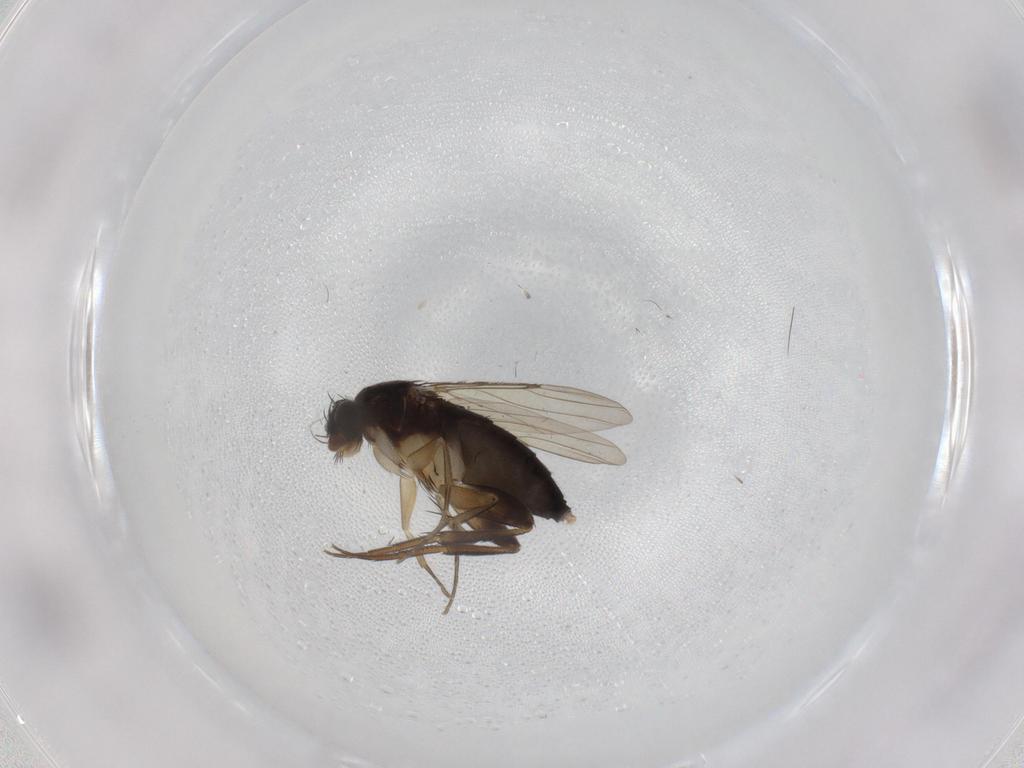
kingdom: Animalia
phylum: Arthropoda
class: Insecta
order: Diptera
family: Phoridae
